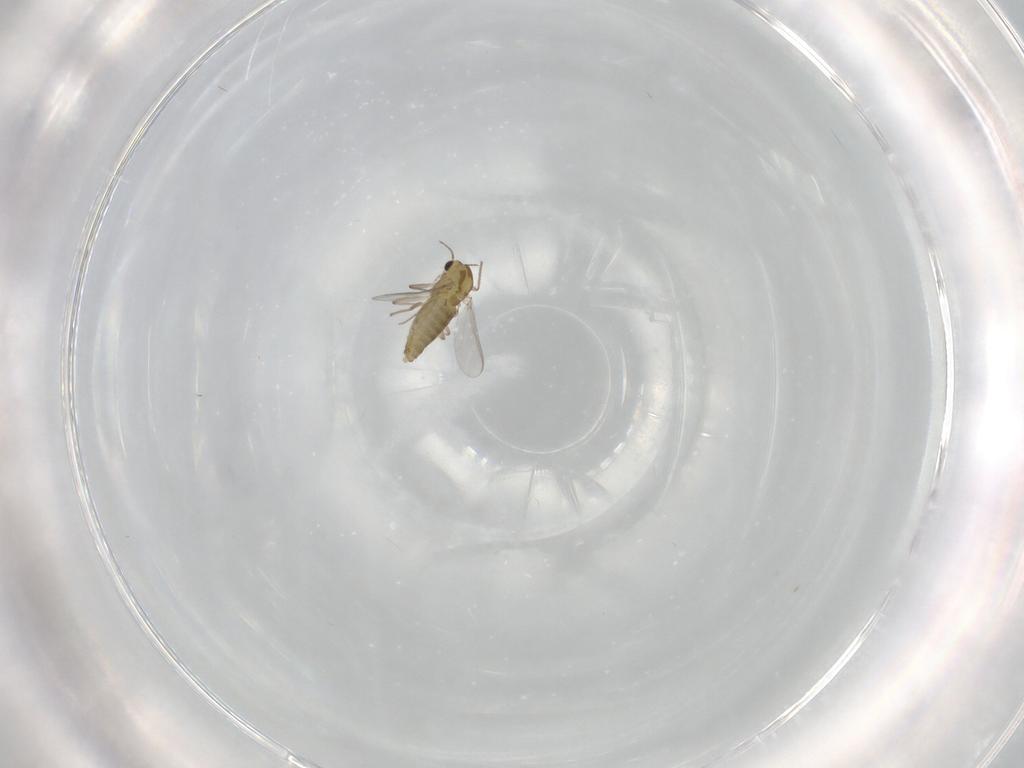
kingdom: Animalia
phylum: Arthropoda
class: Insecta
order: Diptera
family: Chironomidae
